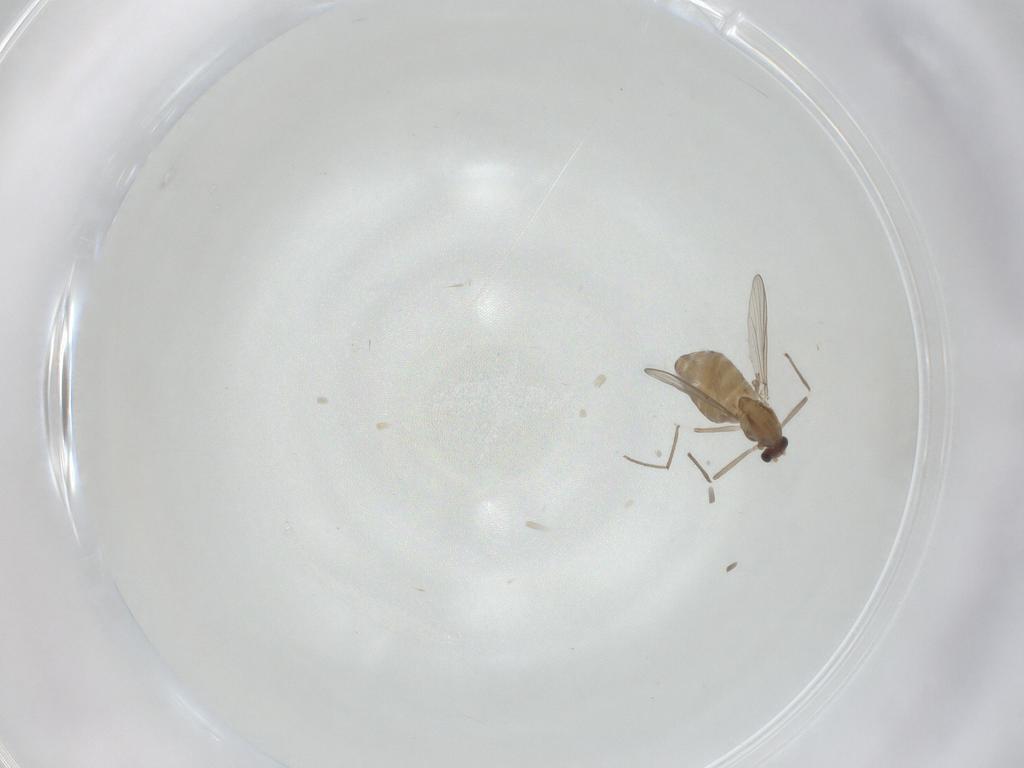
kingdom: Animalia
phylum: Arthropoda
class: Insecta
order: Diptera
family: Chironomidae
